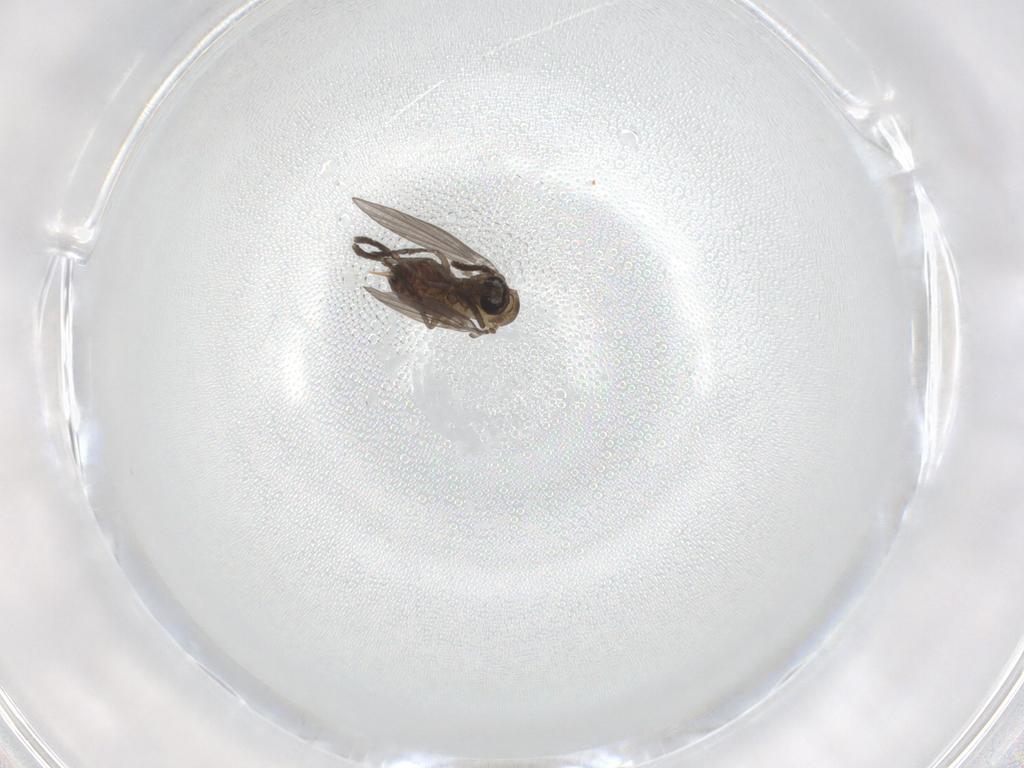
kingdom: Animalia
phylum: Arthropoda
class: Insecta
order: Diptera
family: Psychodidae
